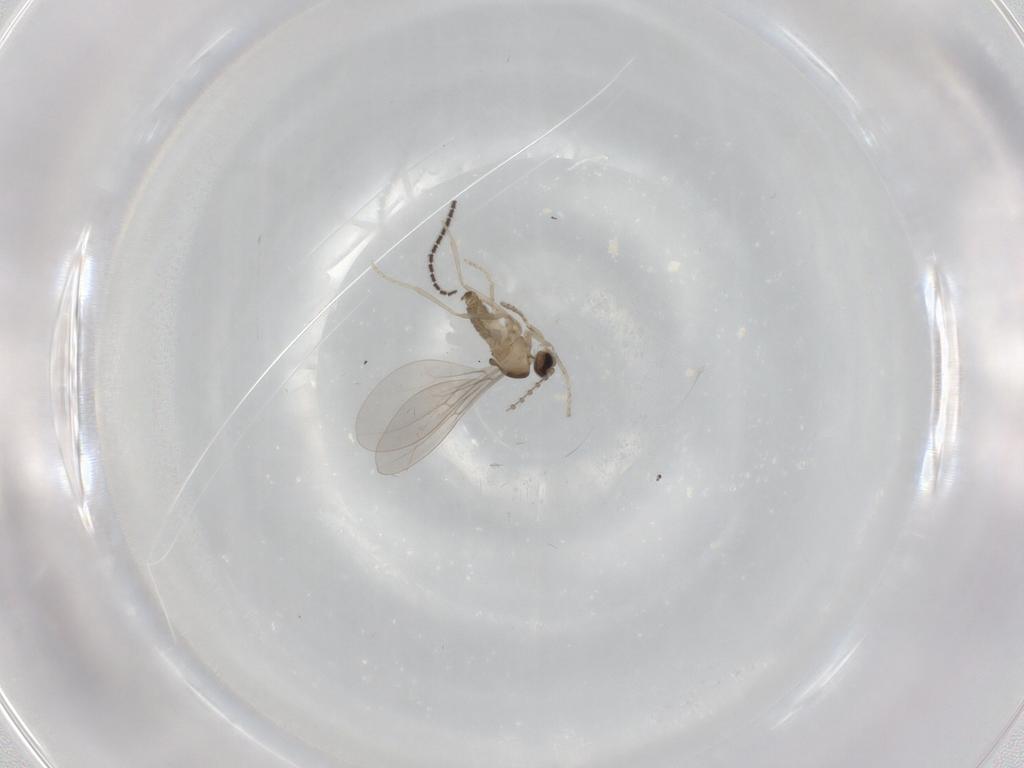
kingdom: Animalia
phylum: Arthropoda
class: Insecta
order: Diptera
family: Cecidomyiidae
